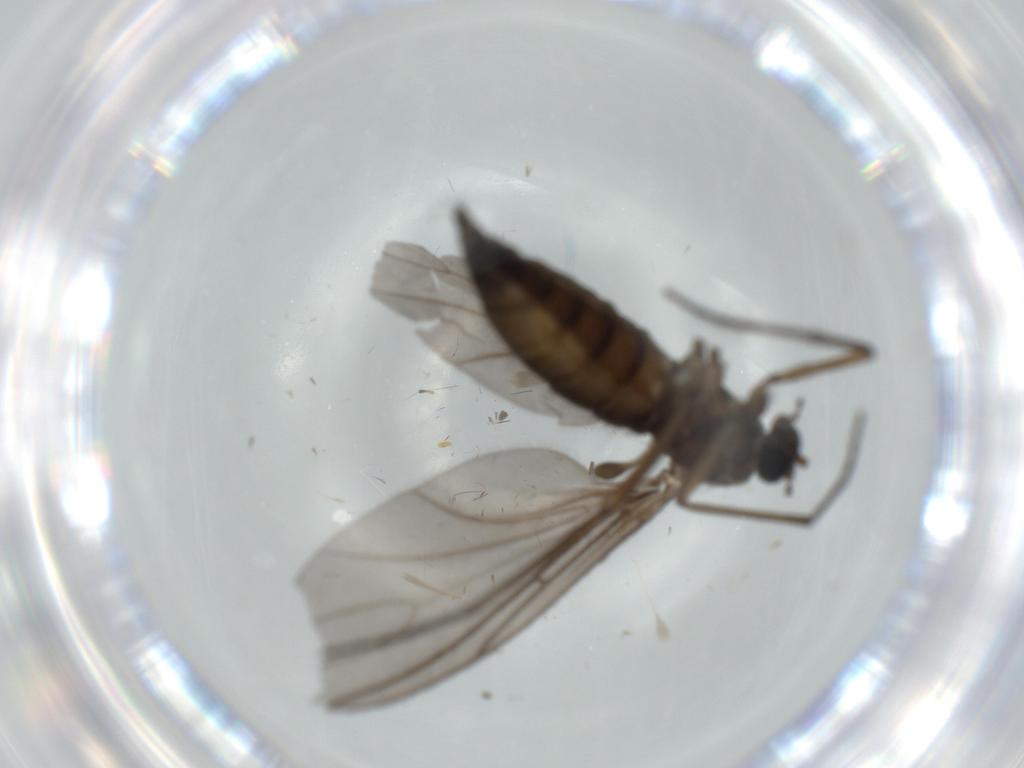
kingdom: Animalia
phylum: Arthropoda
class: Insecta
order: Diptera
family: Sciaridae
